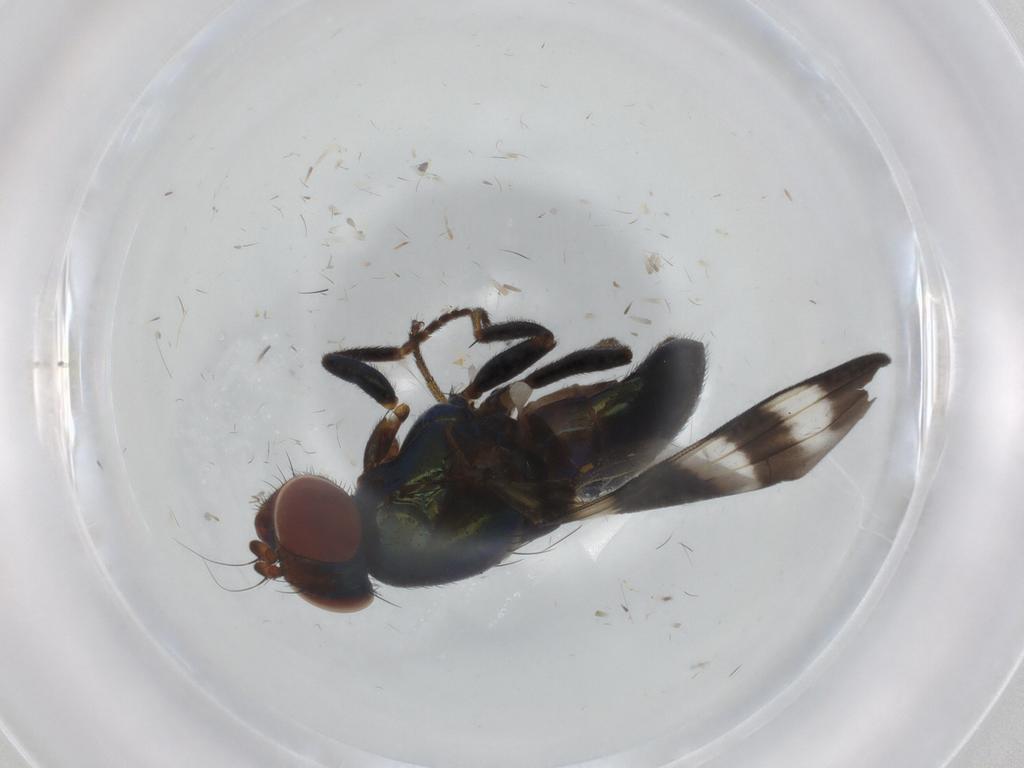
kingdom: Animalia
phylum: Arthropoda
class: Insecta
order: Diptera
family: Ulidiidae
